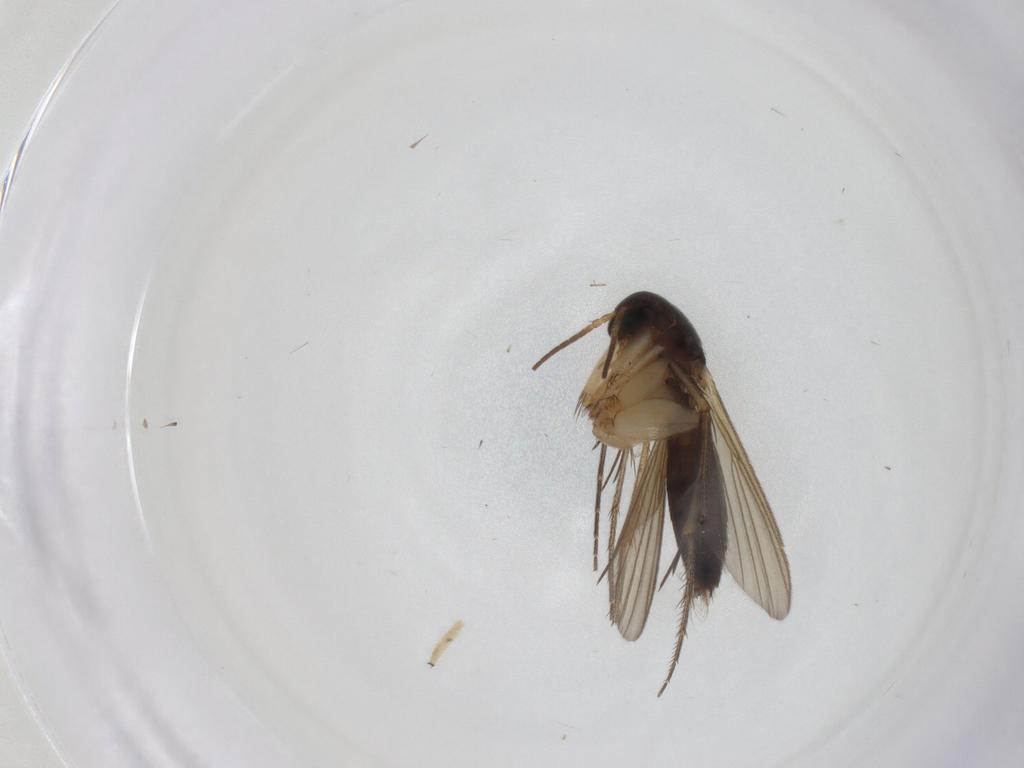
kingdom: Animalia
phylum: Arthropoda
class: Insecta
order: Diptera
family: Mycetophilidae
